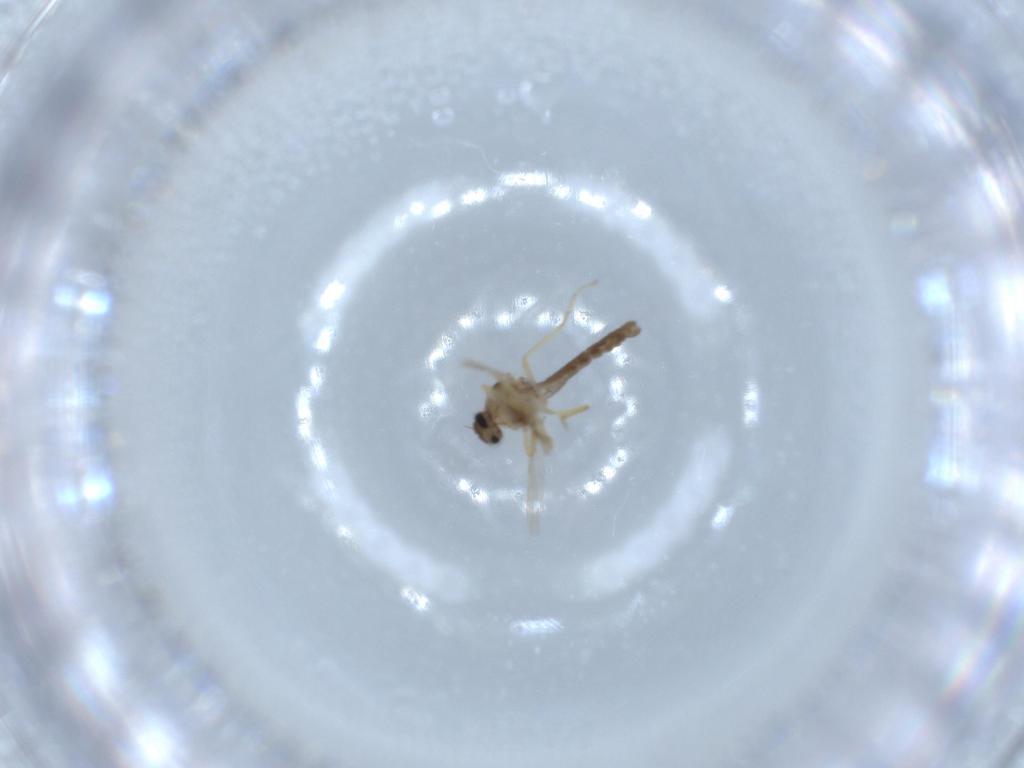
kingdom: Animalia
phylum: Arthropoda
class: Insecta
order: Diptera
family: Ceratopogonidae
